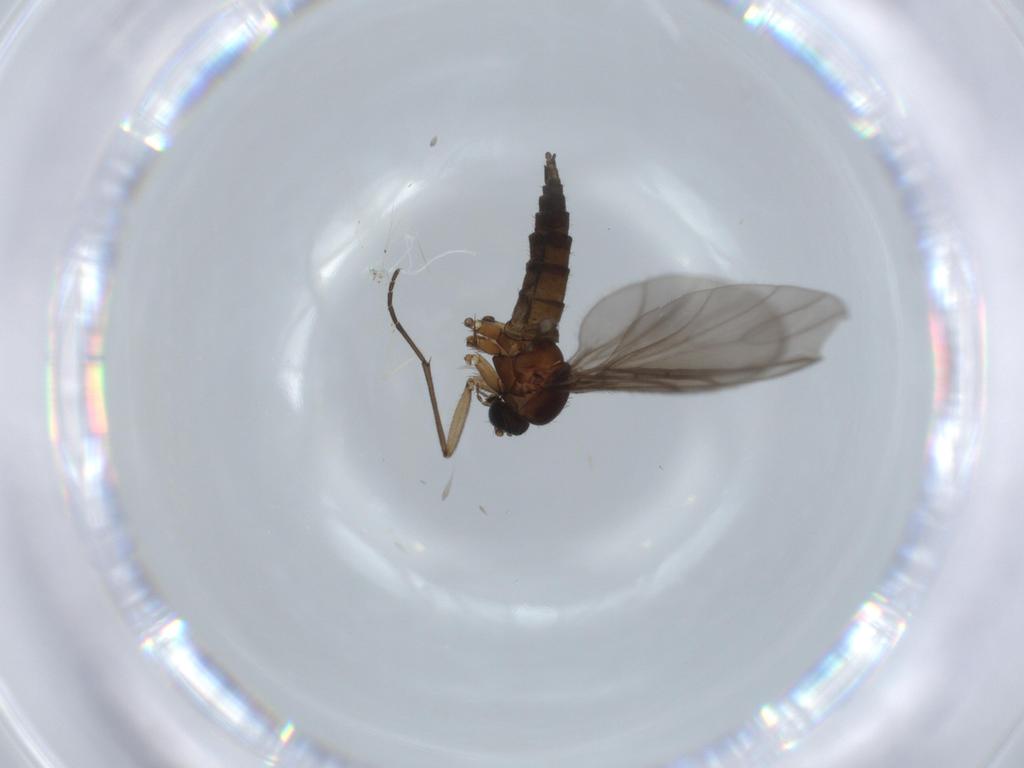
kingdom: Animalia
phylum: Arthropoda
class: Insecta
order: Diptera
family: Sciaridae
